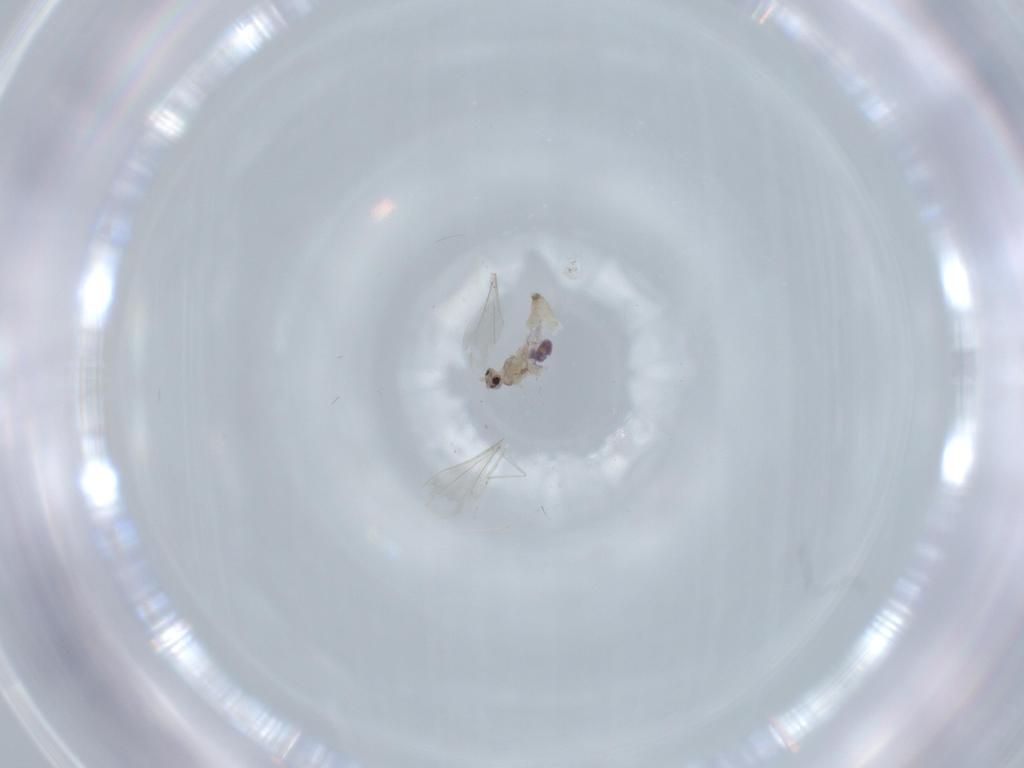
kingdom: Animalia
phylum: Arthropoda
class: Insecta
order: Diptera
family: Cecidomyiidae
